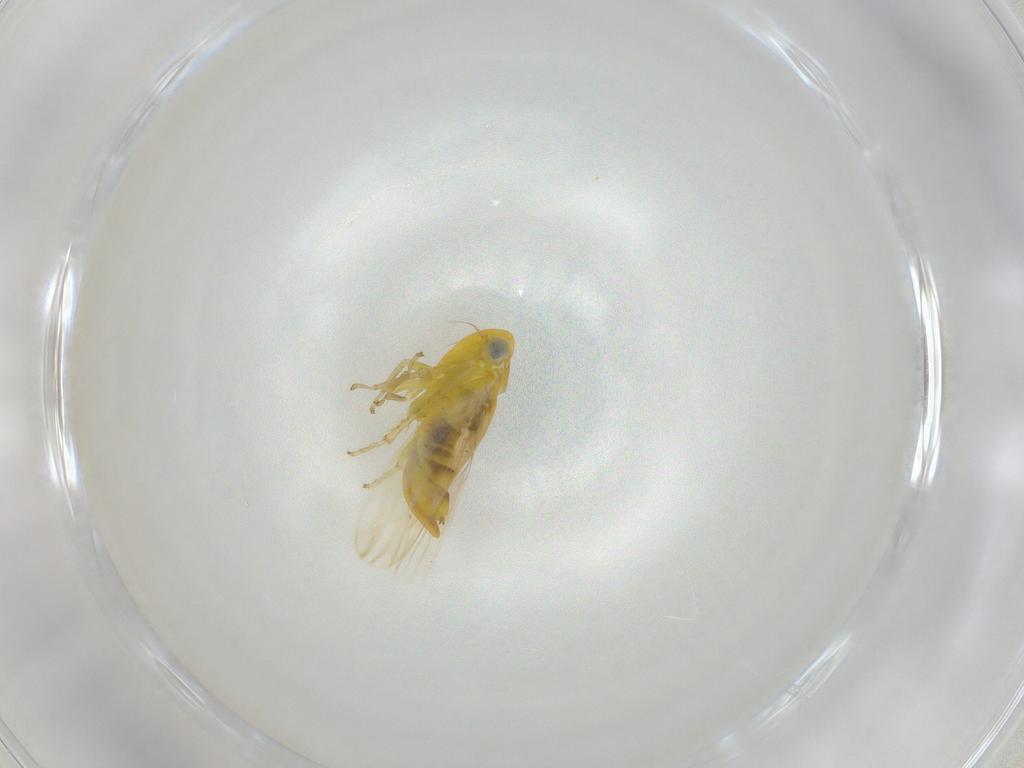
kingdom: Animalia
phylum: Arthropoda
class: Insecta
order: Hemiptera
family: Cicadellidae
